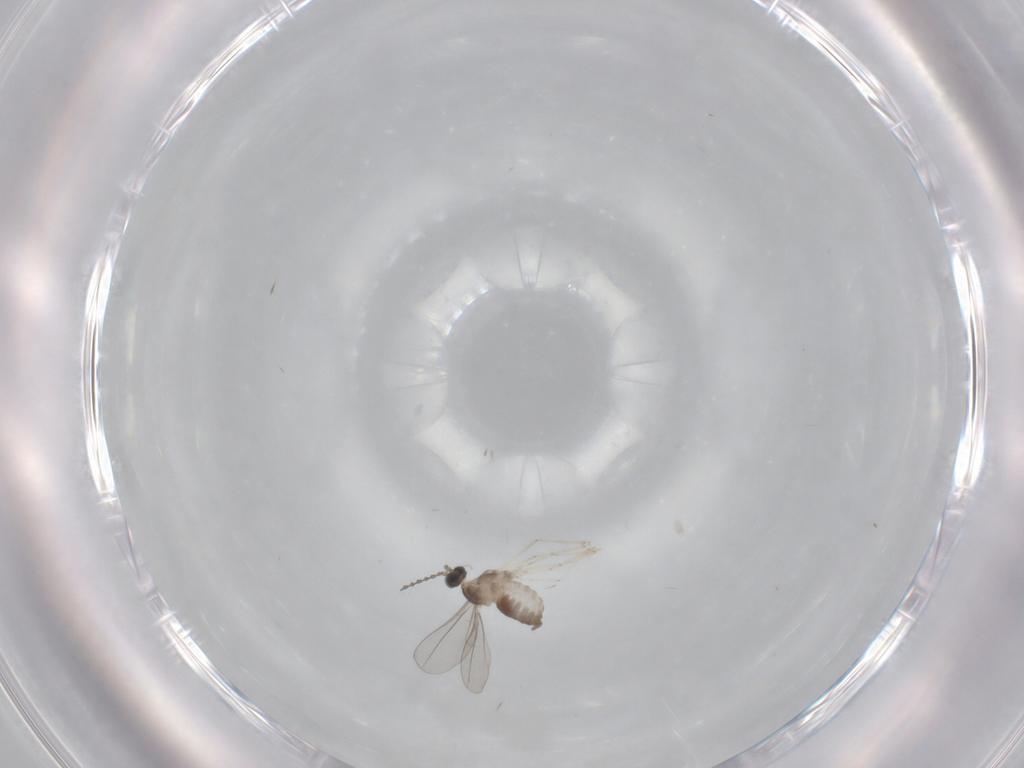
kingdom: Animalia
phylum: Arthropoda
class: Insecta
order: Diptera
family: Cecidomyiidae
